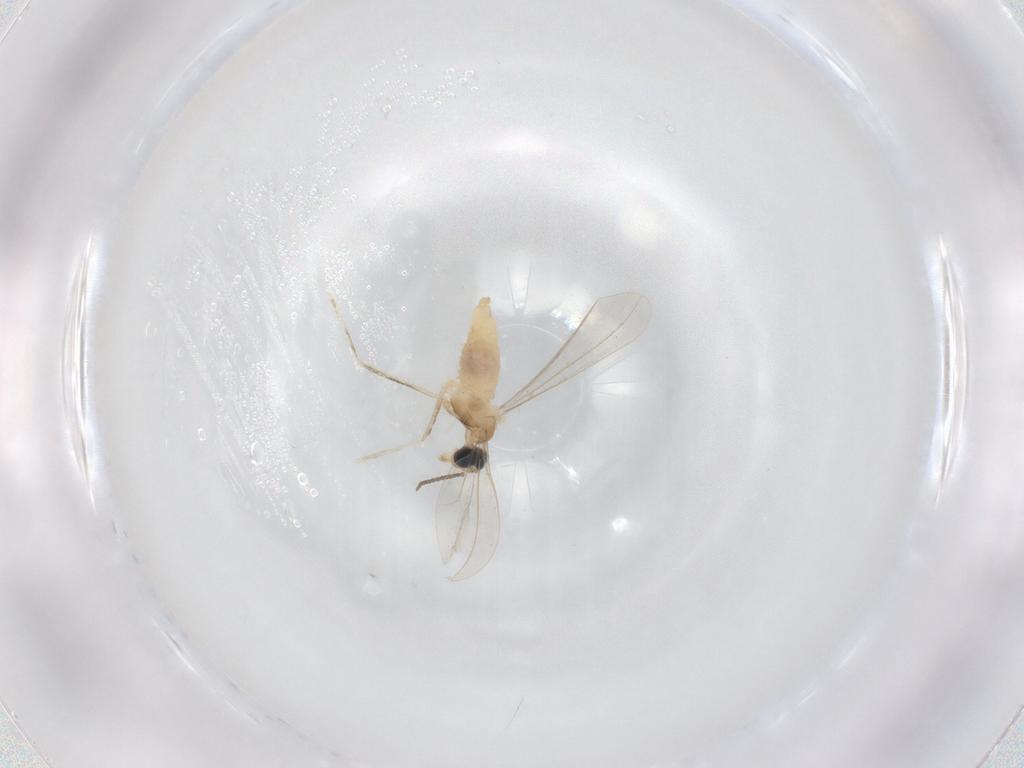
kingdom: Animalia
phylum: Arthropoda
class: Insecta
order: Diptera
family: Cecidomyiidae
